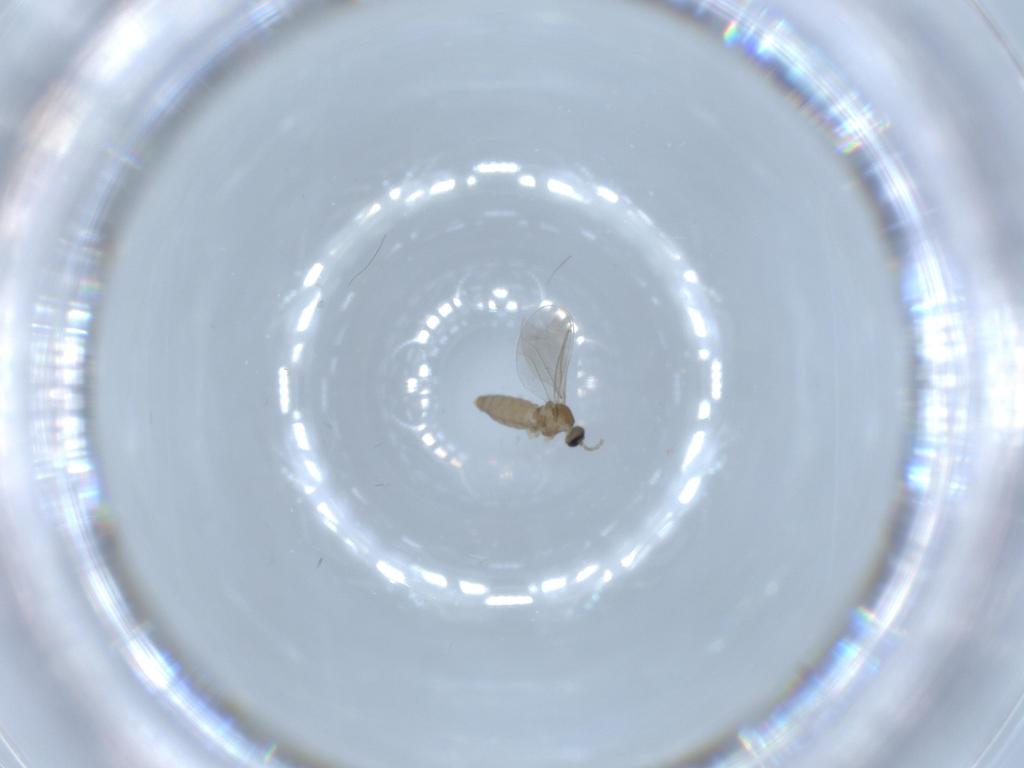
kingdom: Animalia
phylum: Arthropoda
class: Insecta
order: Diptera
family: Cecidomyiidae
